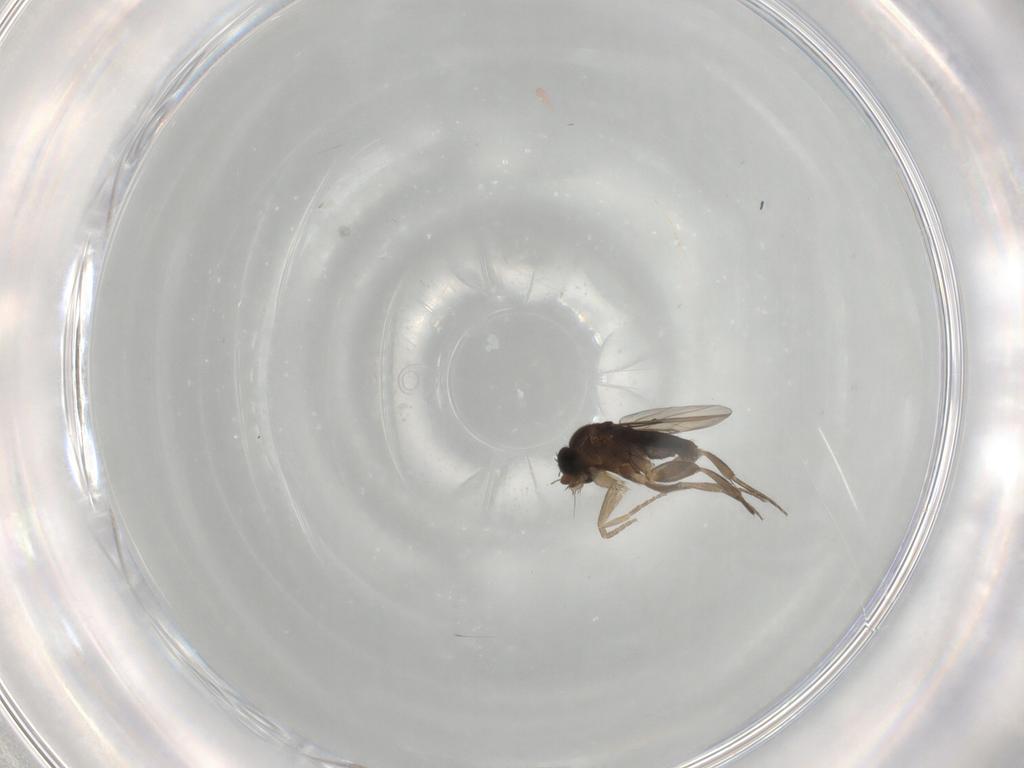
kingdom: Animalia
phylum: Arthropoda
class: Insecta
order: Diptera
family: Phoridae
